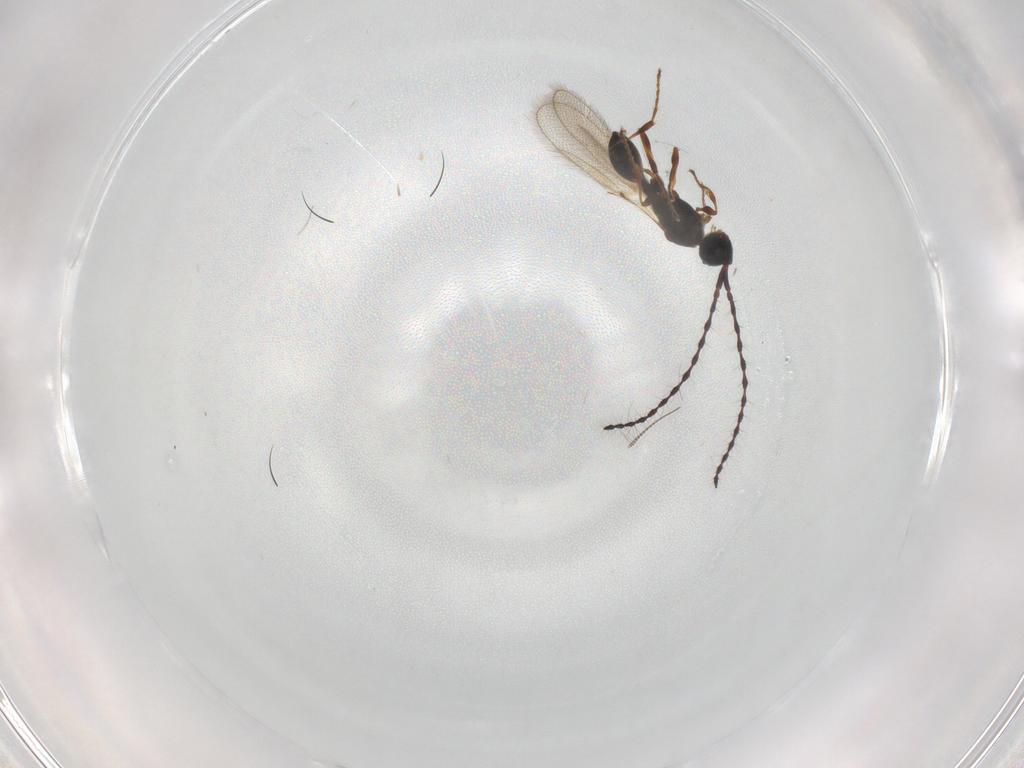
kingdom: Animalia
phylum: Arthropoda
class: Insecta
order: Hymenoptera
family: Diapriidae
